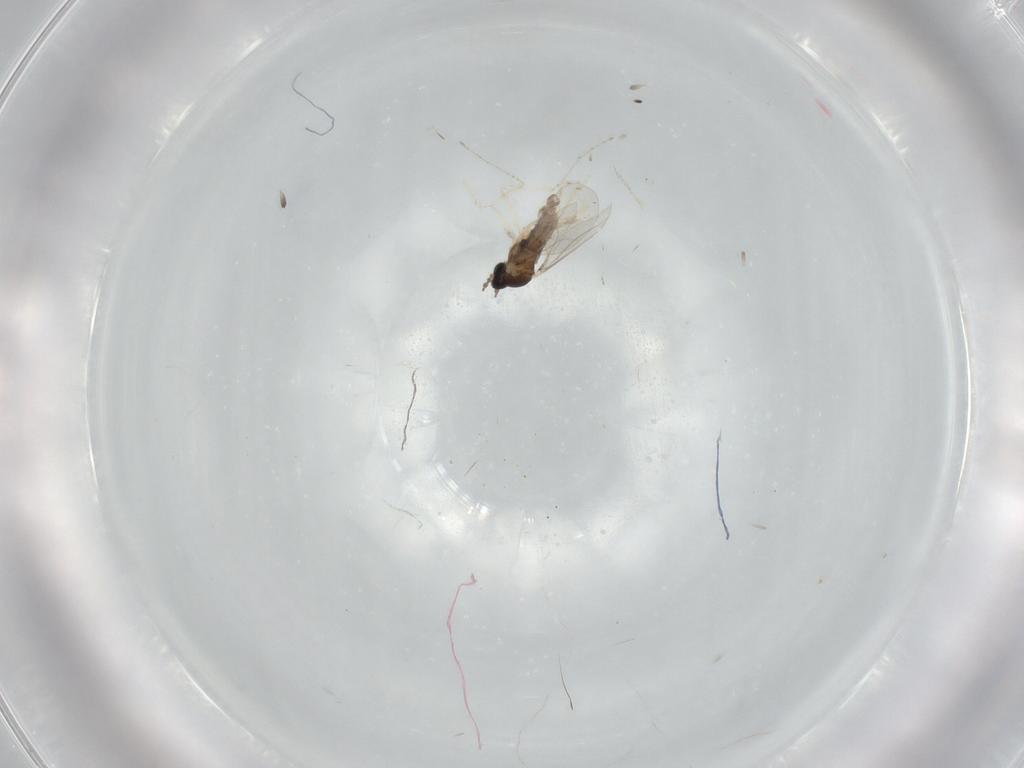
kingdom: Animalia
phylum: Arthropoda
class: Insecta
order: Diptera
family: Cecidomyiidae
